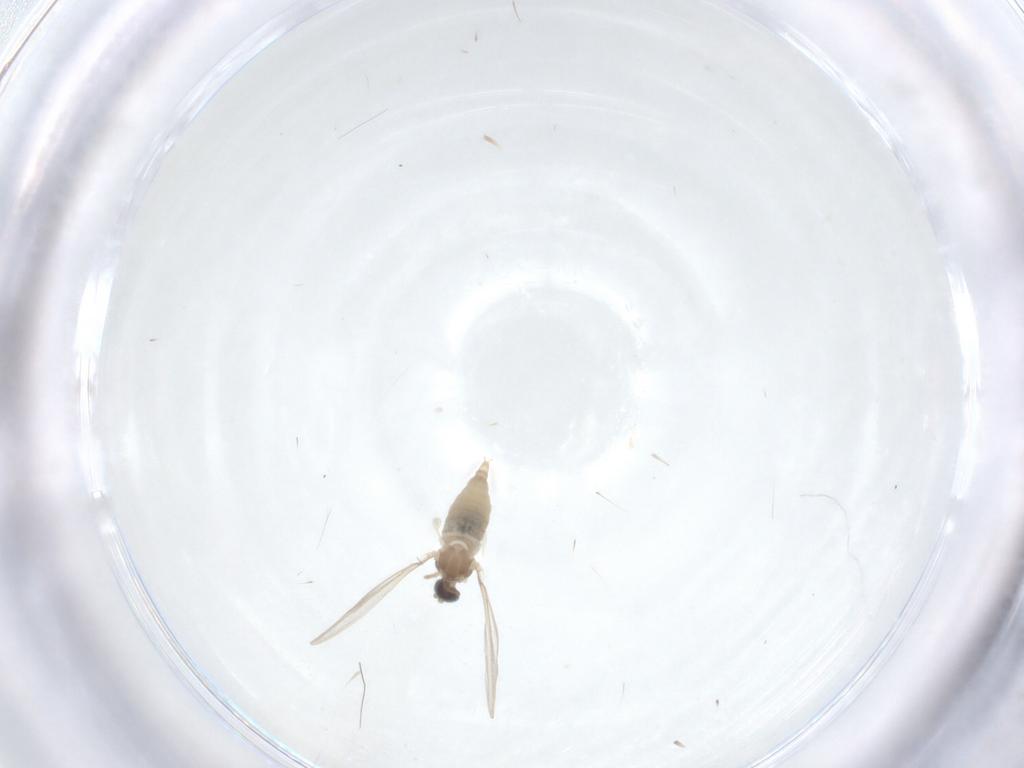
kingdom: Animalia
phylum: Arthropoda
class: Insecta
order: Diptera
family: Cecidomyiidae
